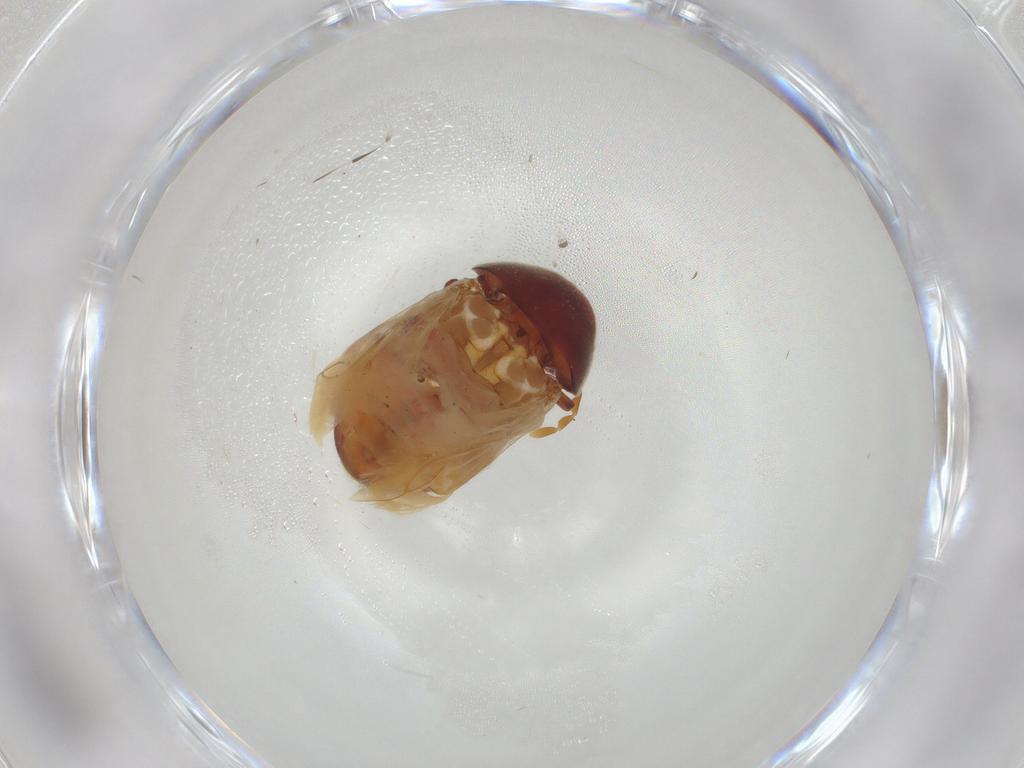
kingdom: Animalia
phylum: Arthropoda
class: Insecta
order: Coleoptera
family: Ptinidae
